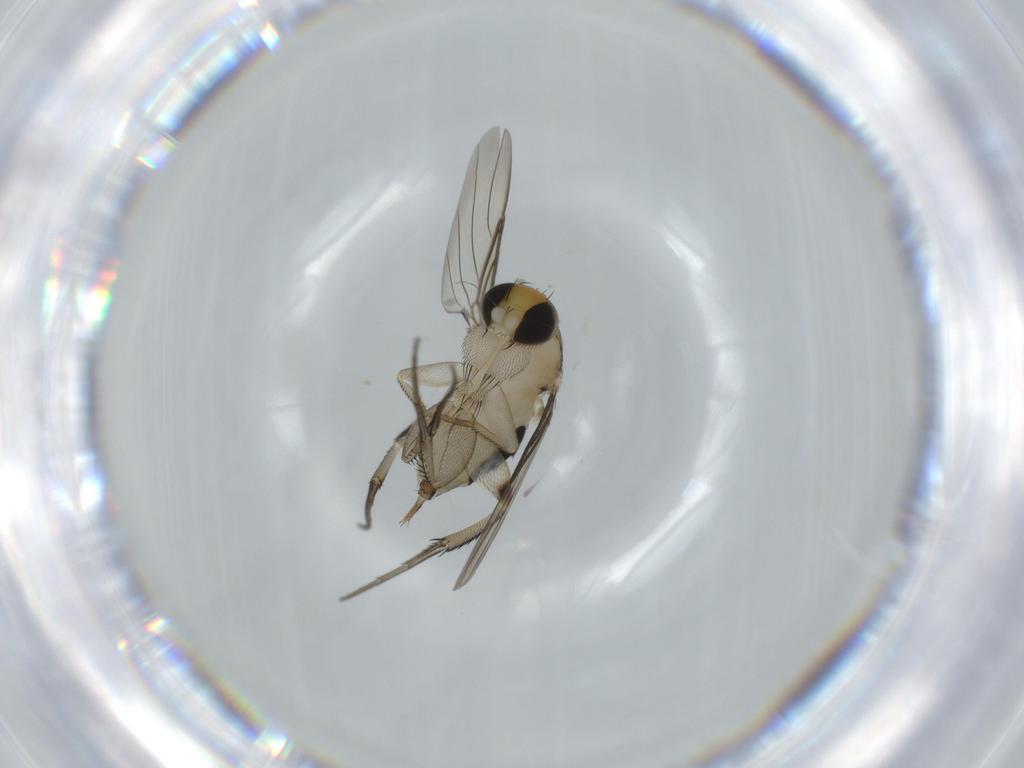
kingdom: Animalia
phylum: Arthropoda
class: Insecta
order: Diptera
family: Phoridae
